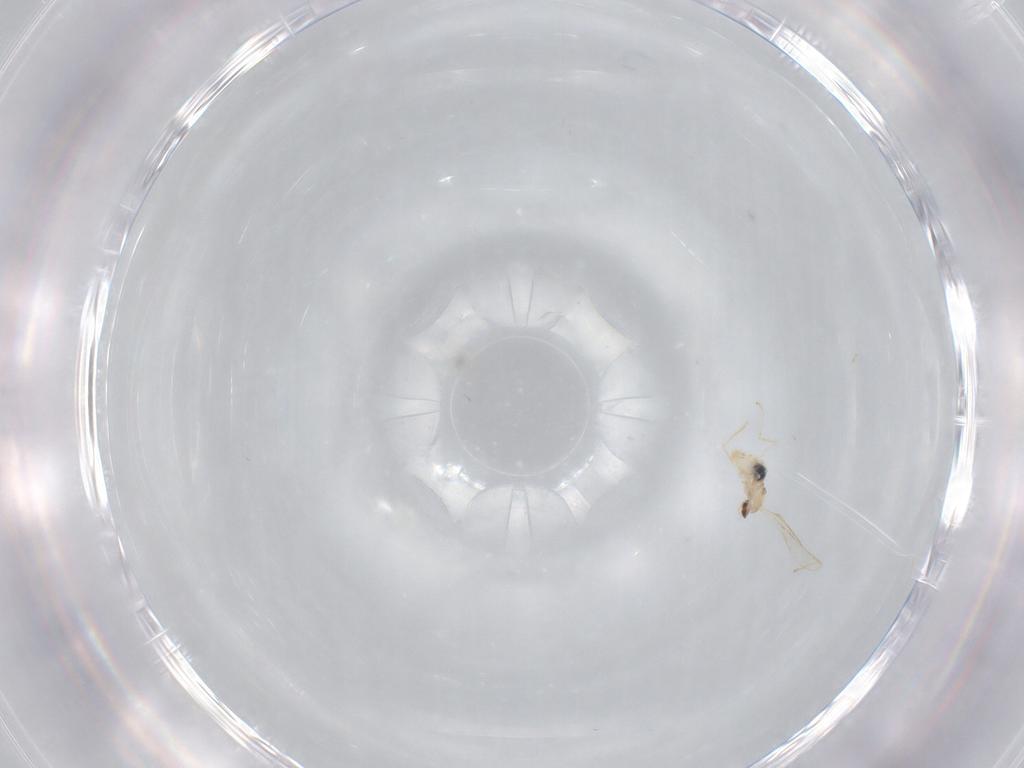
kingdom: Animalia
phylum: Arthropoda
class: Insecta
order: Diptera
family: Cecidomyiidae
